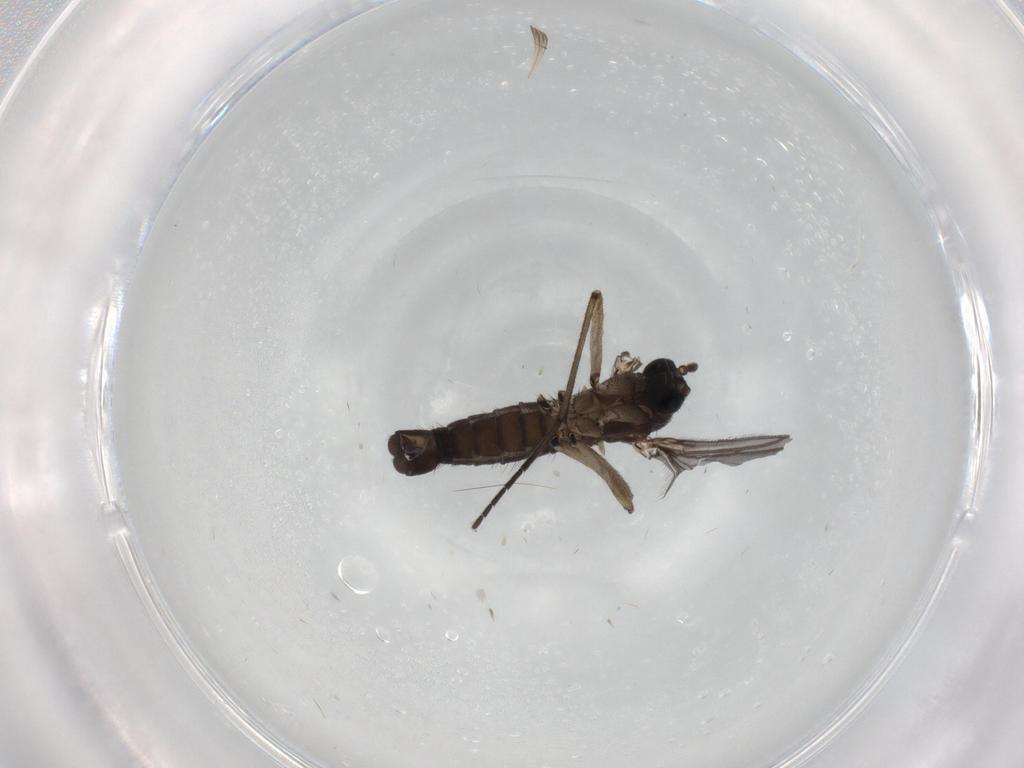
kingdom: Animalia
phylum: Arthropoda
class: Insecta
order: Diptera
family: Sciaridae
